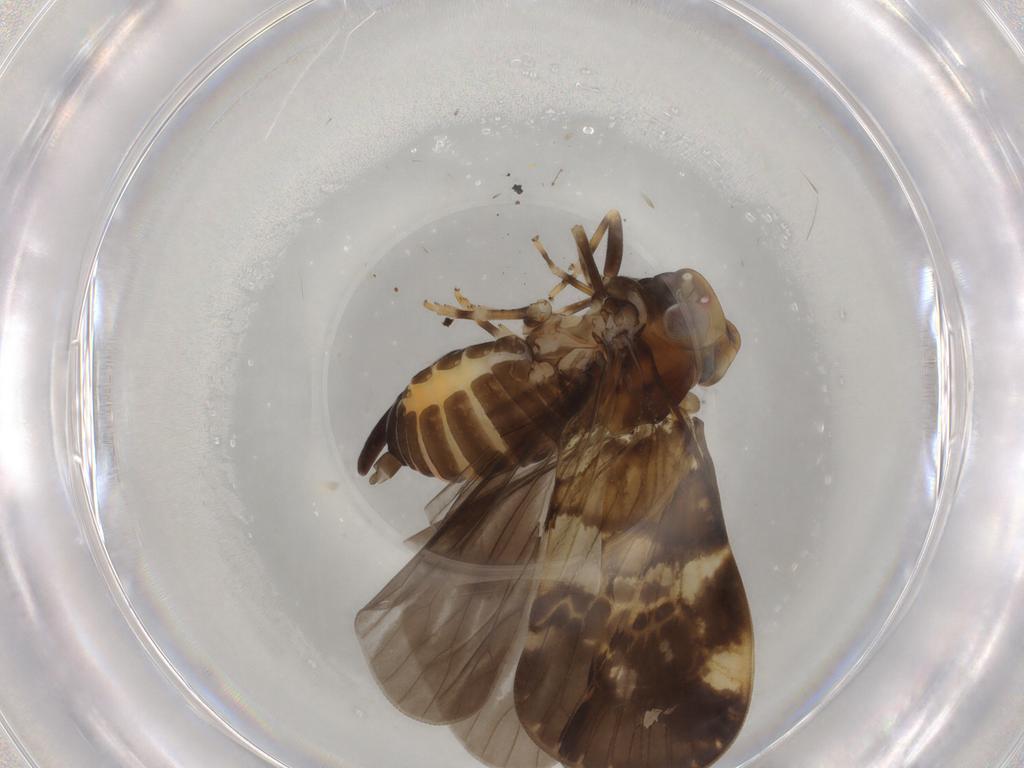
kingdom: Animalia
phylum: Arthropoda
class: Insecta
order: Hemiptera
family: Cixiidae
